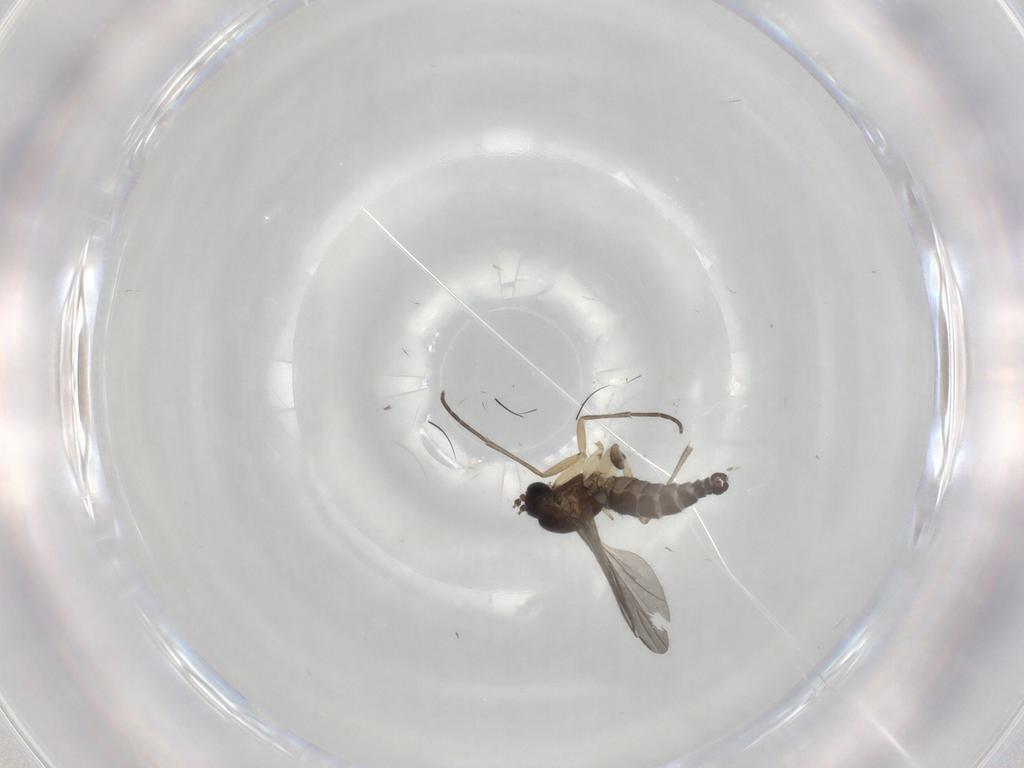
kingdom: Animalia
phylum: Arthropoda
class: Insecta
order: Diptera
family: Sciaridae
